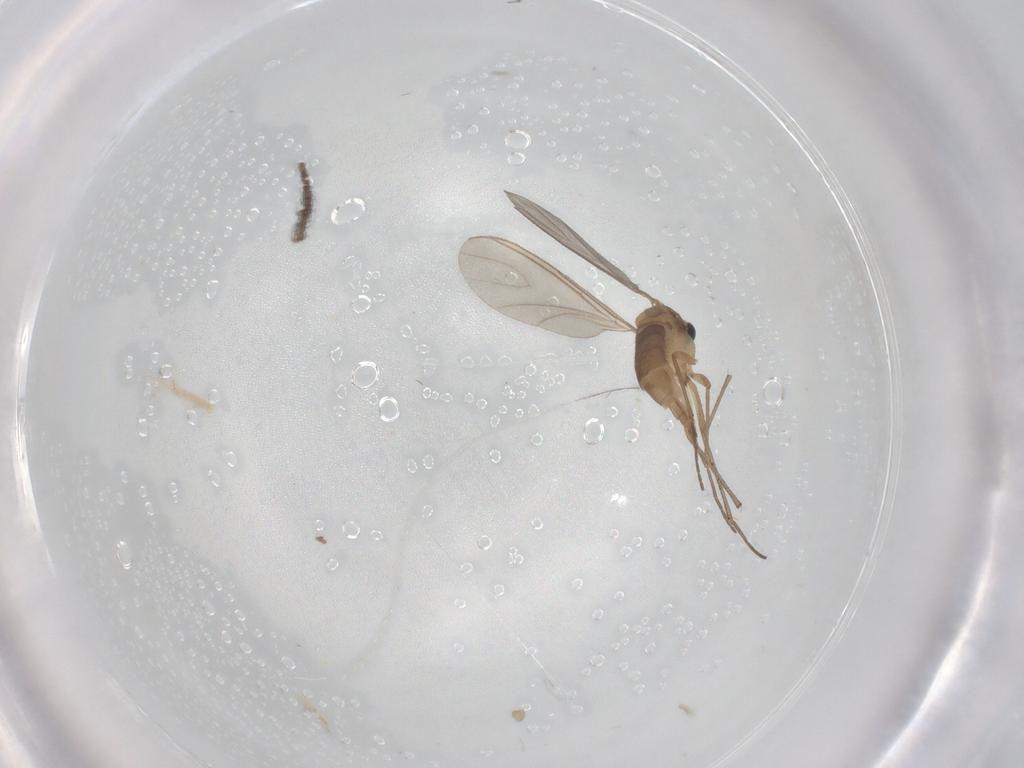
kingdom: Animalia
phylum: Arthropoda
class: Insecta
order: Diptera
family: Sciaridae
